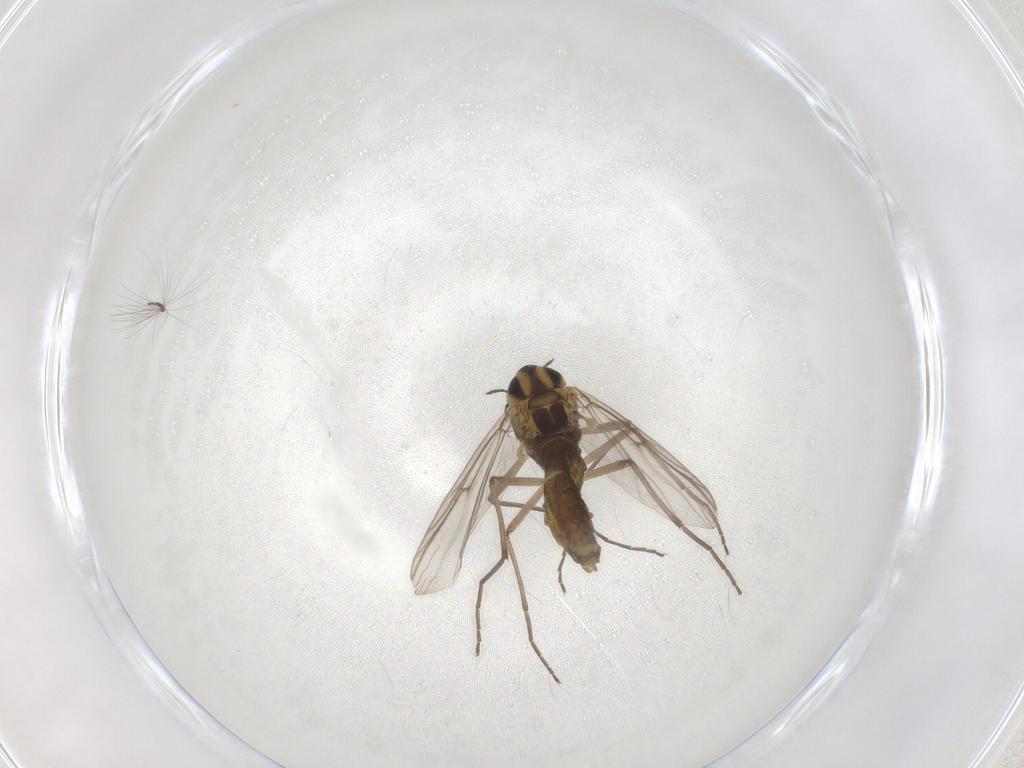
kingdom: Animalia
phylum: Arthropoda
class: Insecta
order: Diptera
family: Chironomidae
